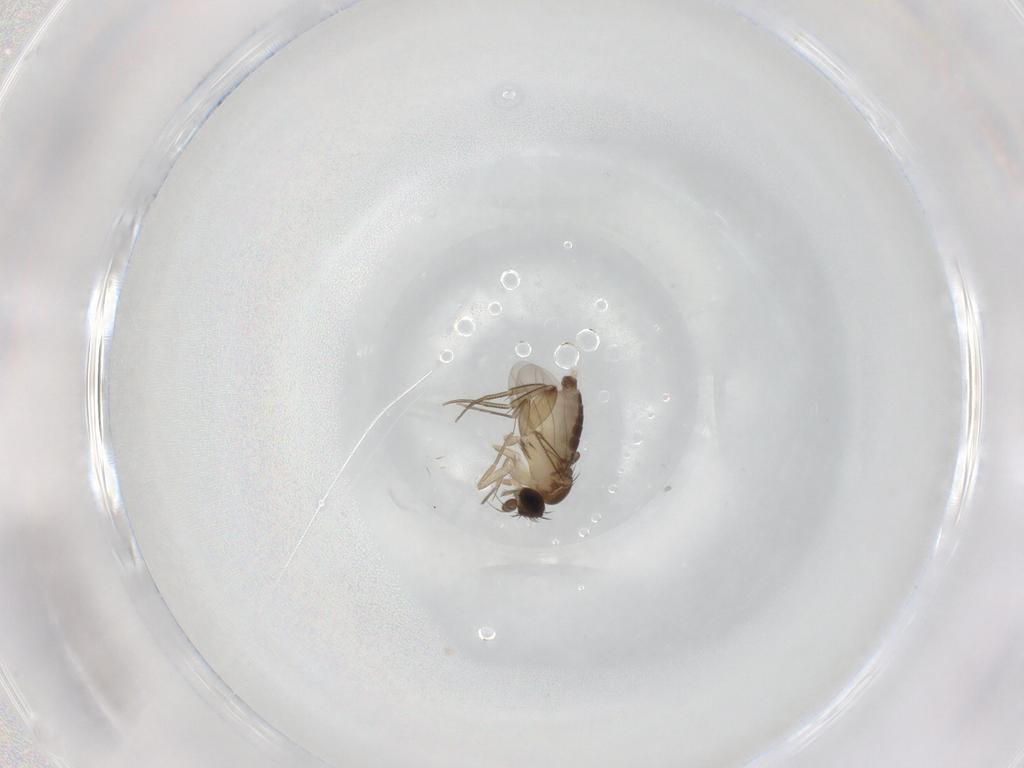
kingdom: Animalia
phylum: Arthropoda
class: Insecta
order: Diptera
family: Phoridae
